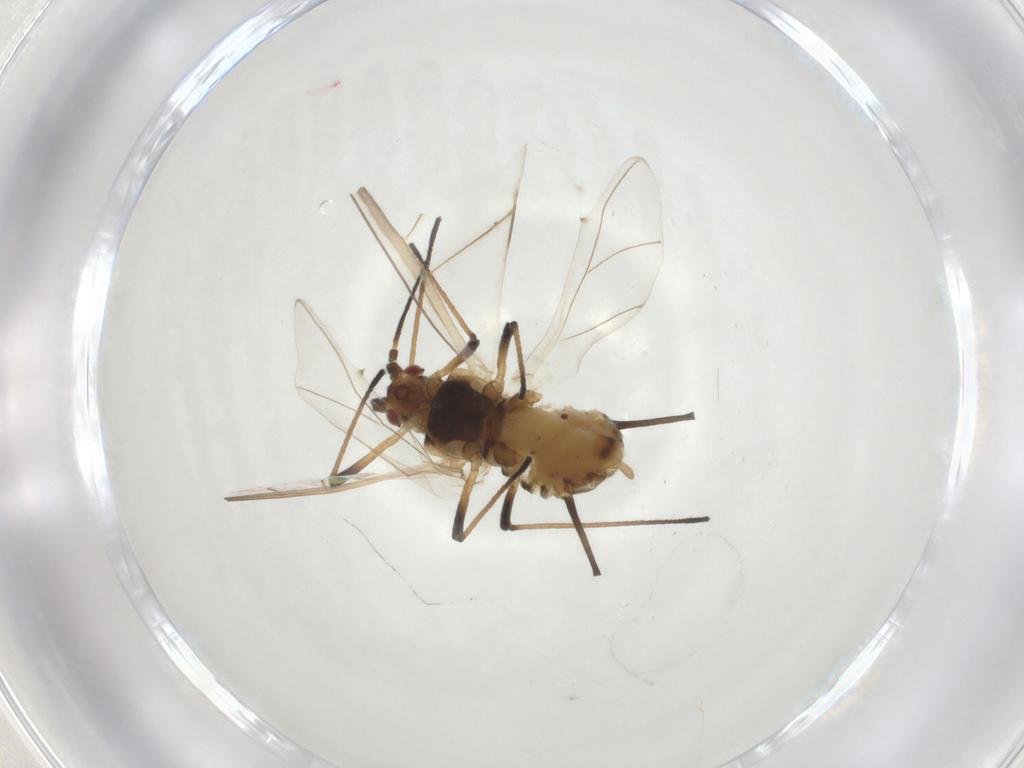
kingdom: Animalia
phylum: Arthropoda
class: Insecta
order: Hemiptera
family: Aphididae
